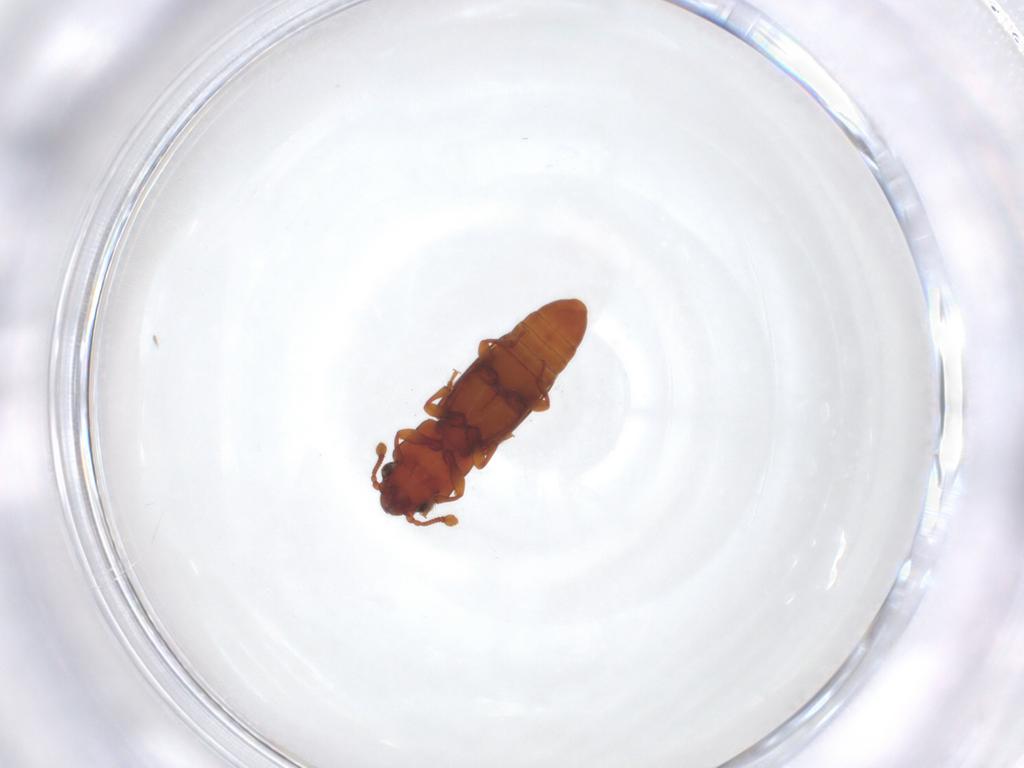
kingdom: Animalia
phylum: Arthropoda
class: Insecta
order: Coleoptera
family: Monotomidae
